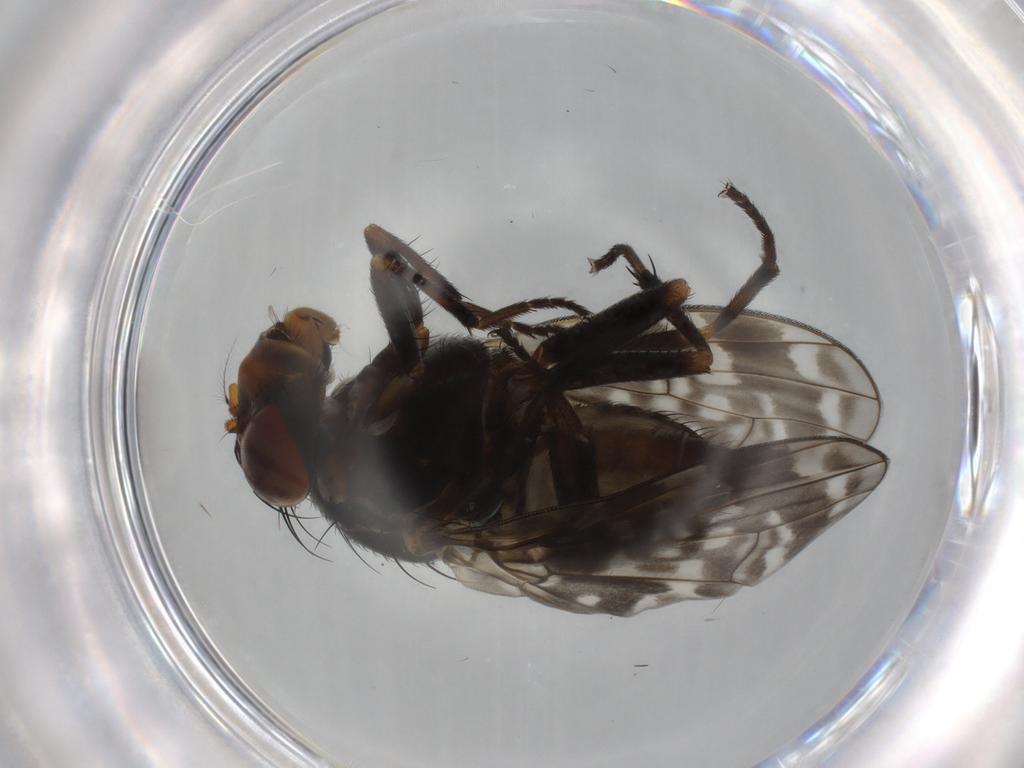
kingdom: Animalia
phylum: Arthropoda
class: Insecta
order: Diptera
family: Lauxaniidae
